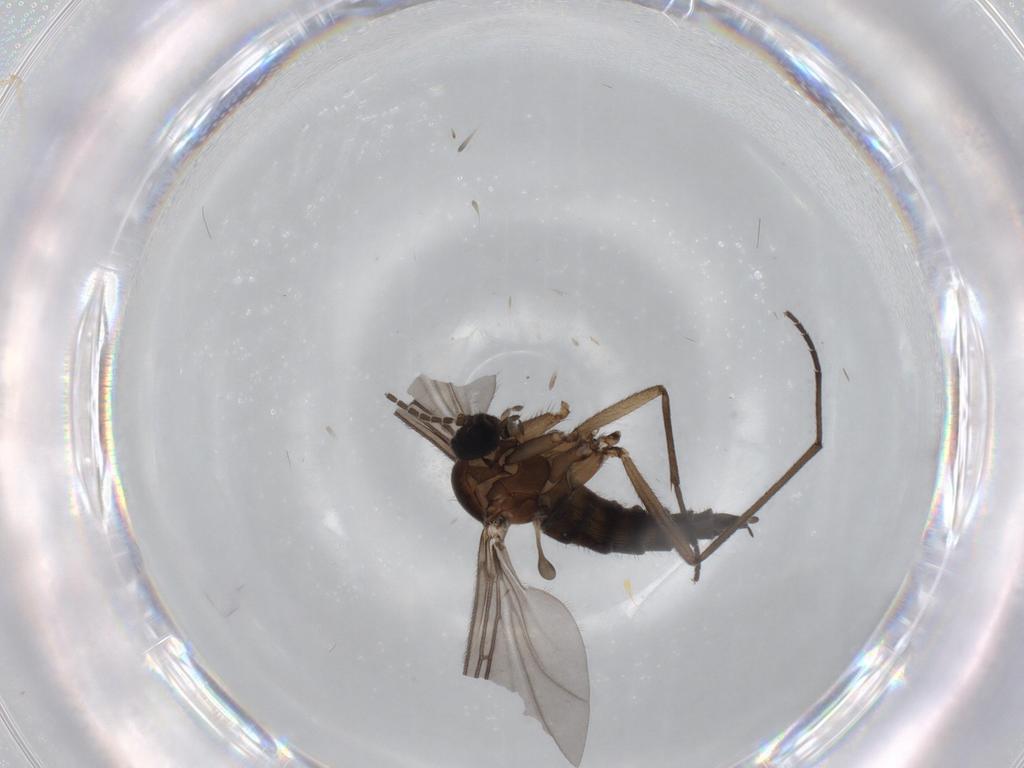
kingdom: Animalia
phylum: Arthropoda
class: Insecta
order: Diptera
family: Sciaridae
